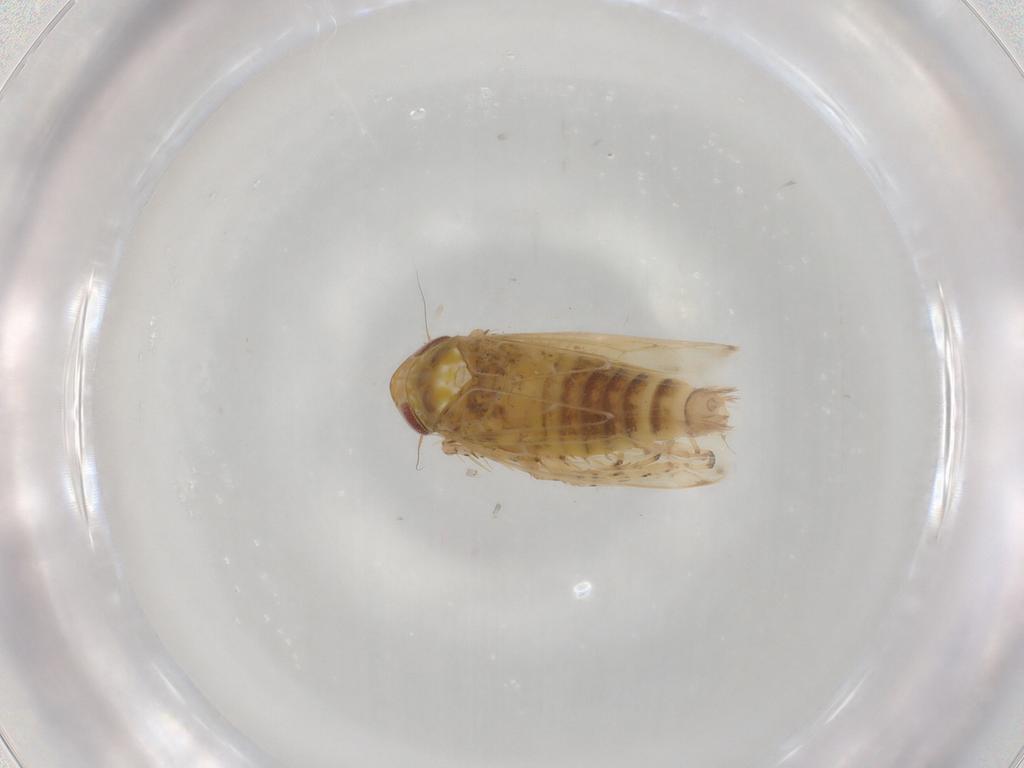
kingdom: Animalia
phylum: Arthropoda
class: Insecta
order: Hemiptera
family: Cicadellidae
